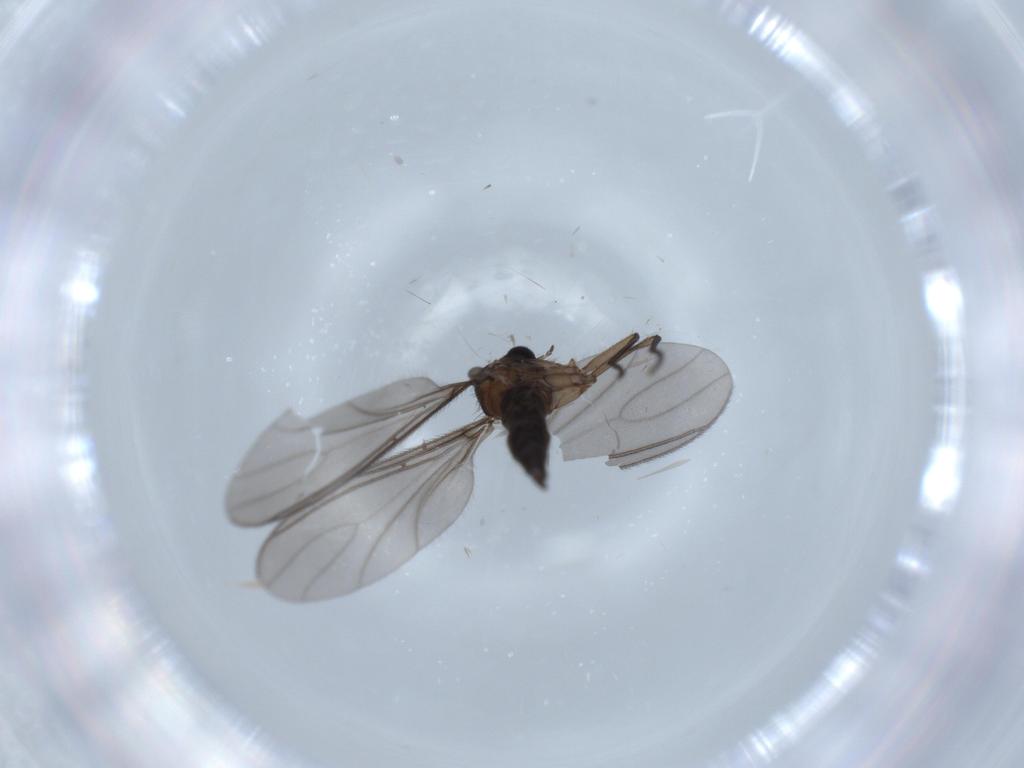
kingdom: Animalia
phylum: Arthropoda
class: Insecta
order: Diptera
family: Sciaridae
